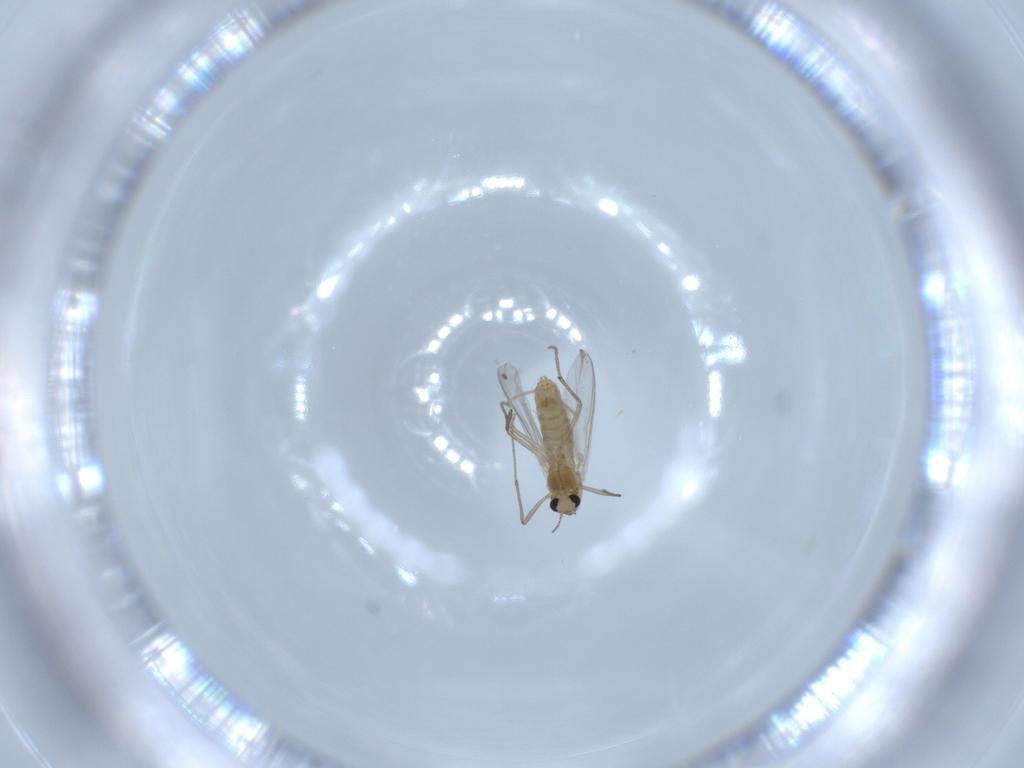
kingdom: Animalia
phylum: Arthropoda
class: Insecta
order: Diptera
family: Chironomidae
